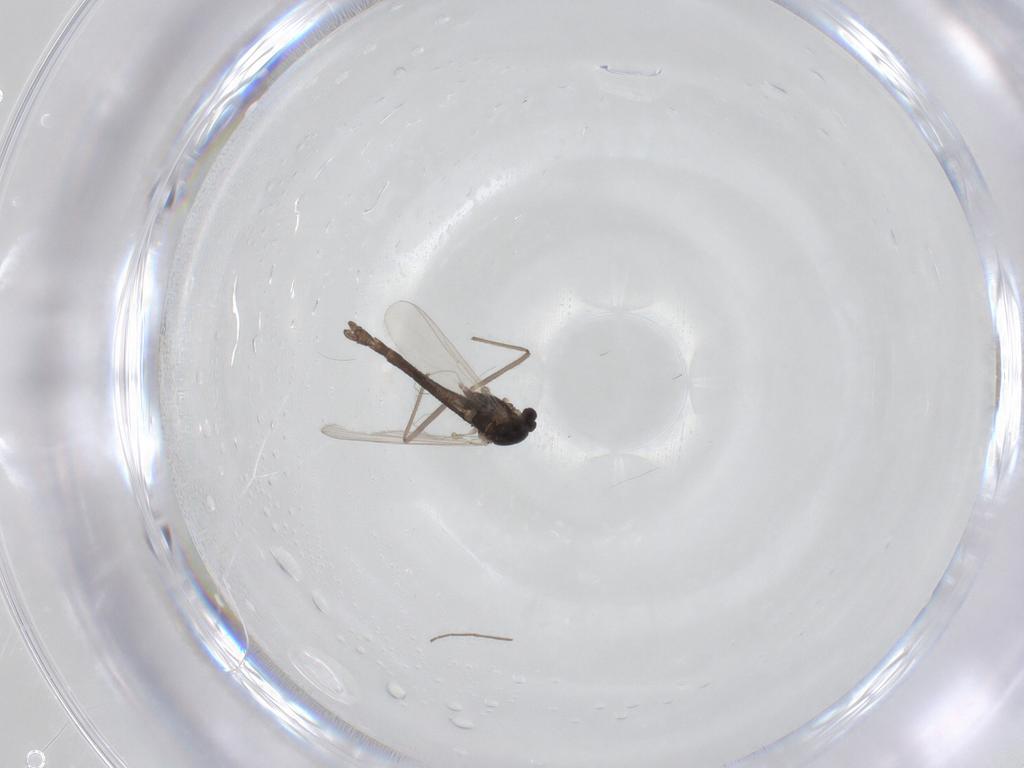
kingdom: Animalia
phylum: Arthropoda
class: Insecta
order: Diptera
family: Chironomidae
